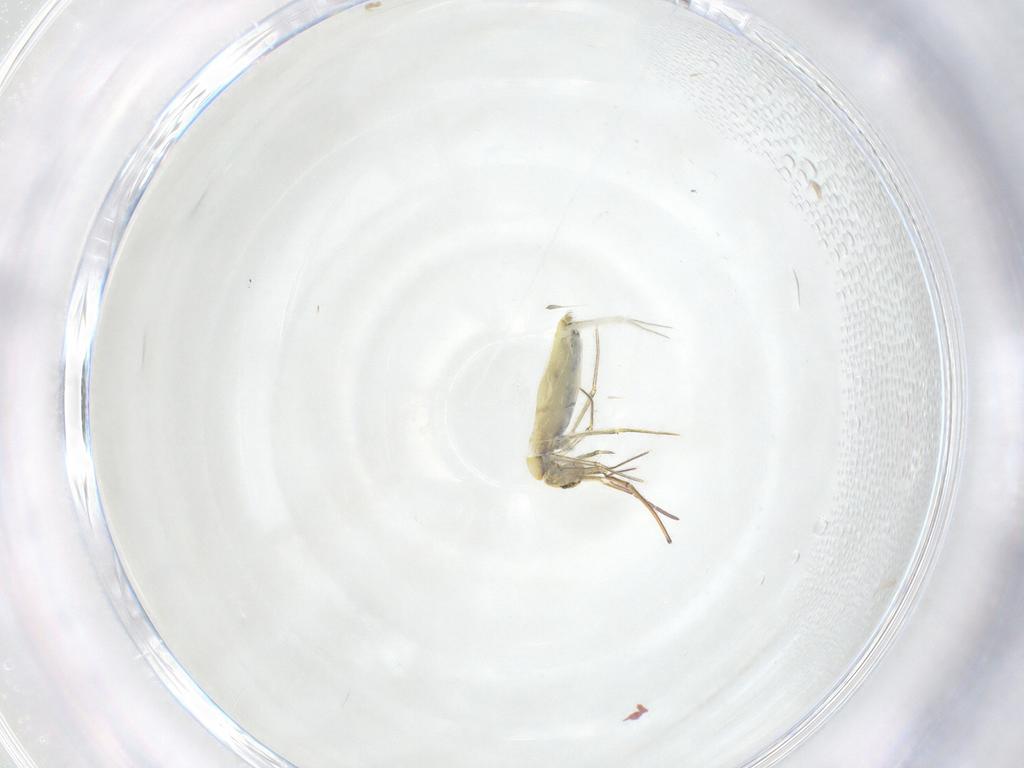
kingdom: Animalia
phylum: Arthropoda
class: Collembola
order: Entomobryomorpha
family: Entomobryidae
